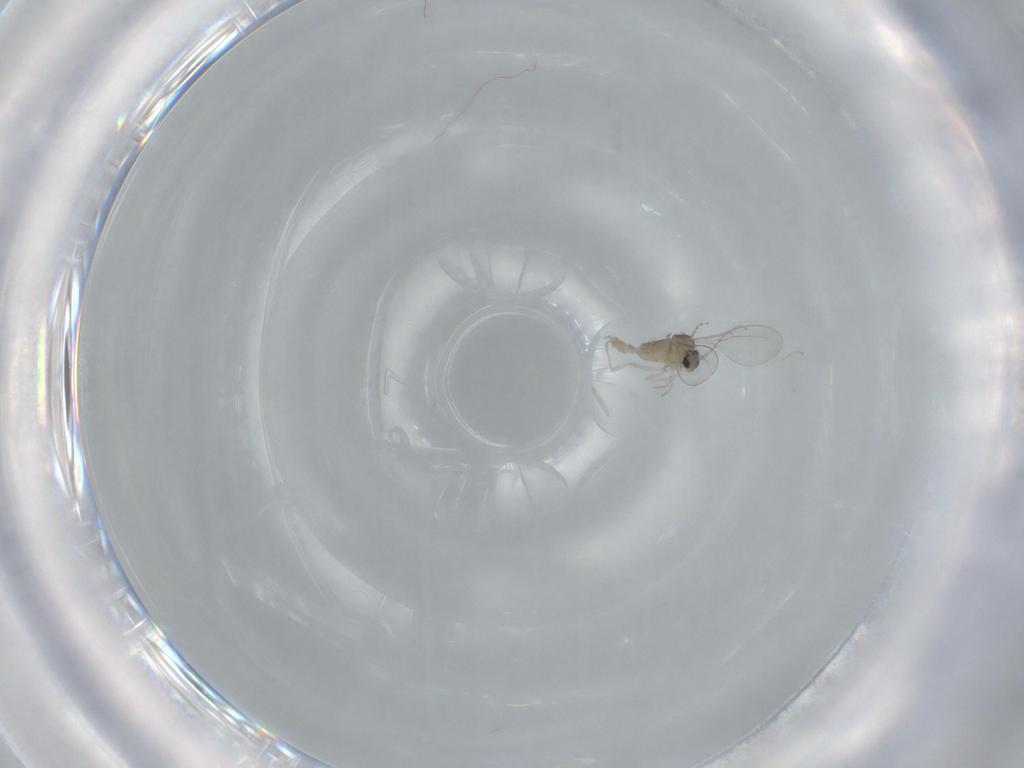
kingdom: Animalia
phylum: Arthropoda
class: Insecta
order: Diptera
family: Cecidomyiidae
